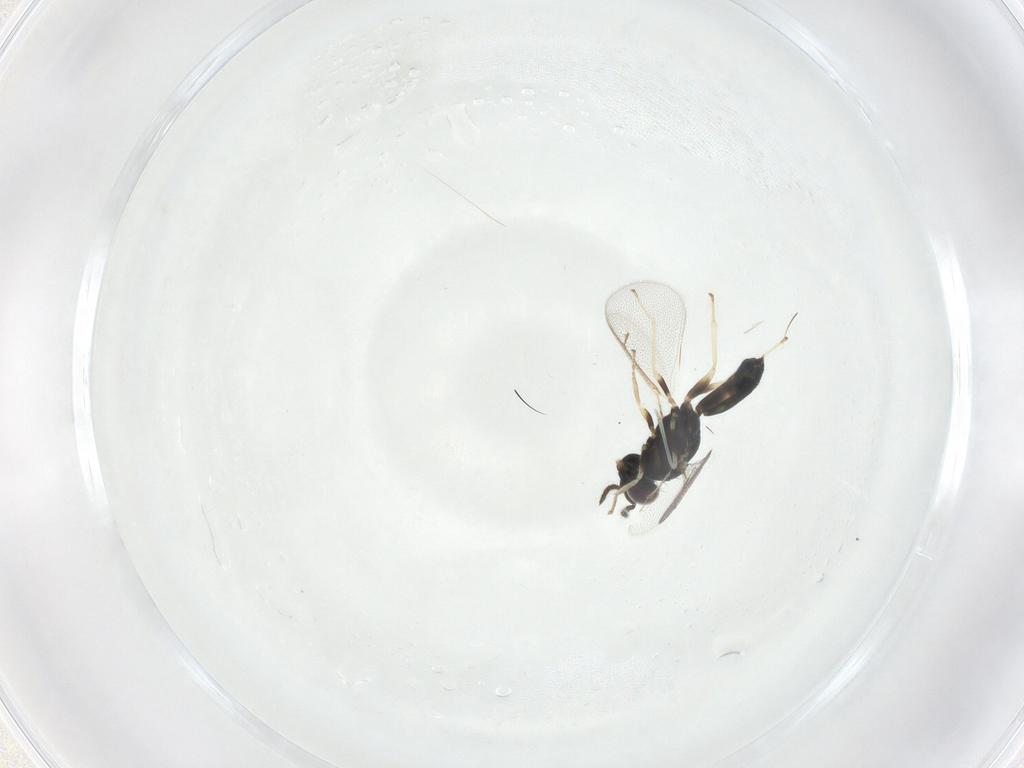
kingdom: Animalia
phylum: Arthropoda
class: Insecta
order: Hymenoptera
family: Eulophidae
